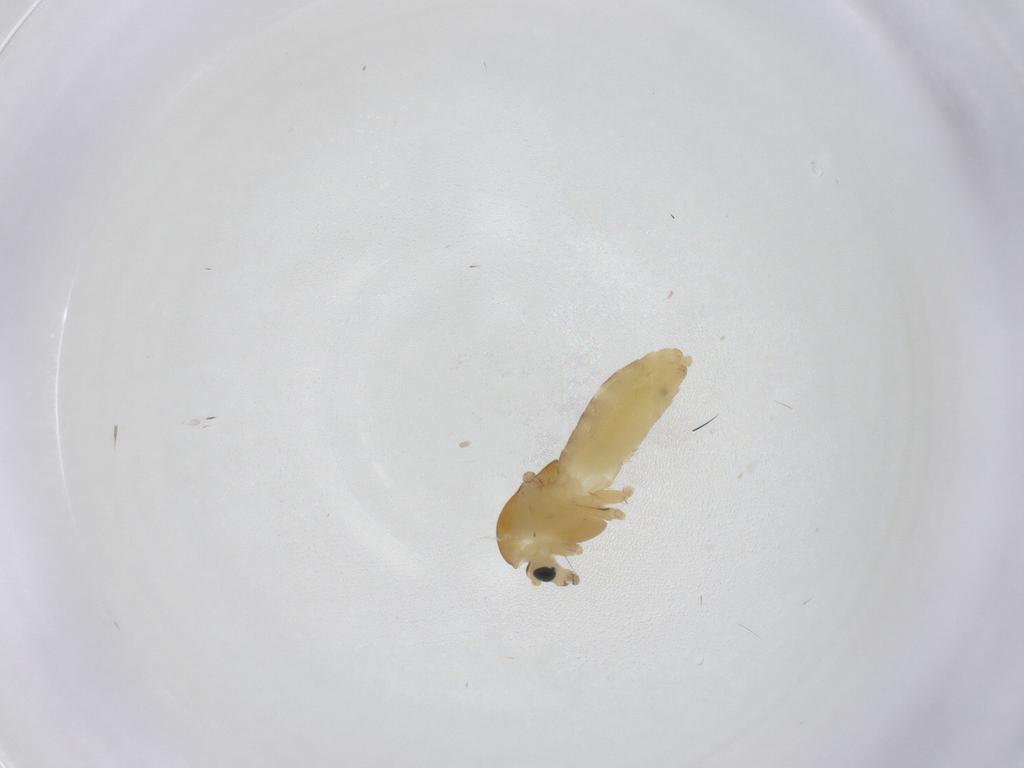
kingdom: Animalia
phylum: Arthropoda
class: Insecta
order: Diptera
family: Chironomidae
